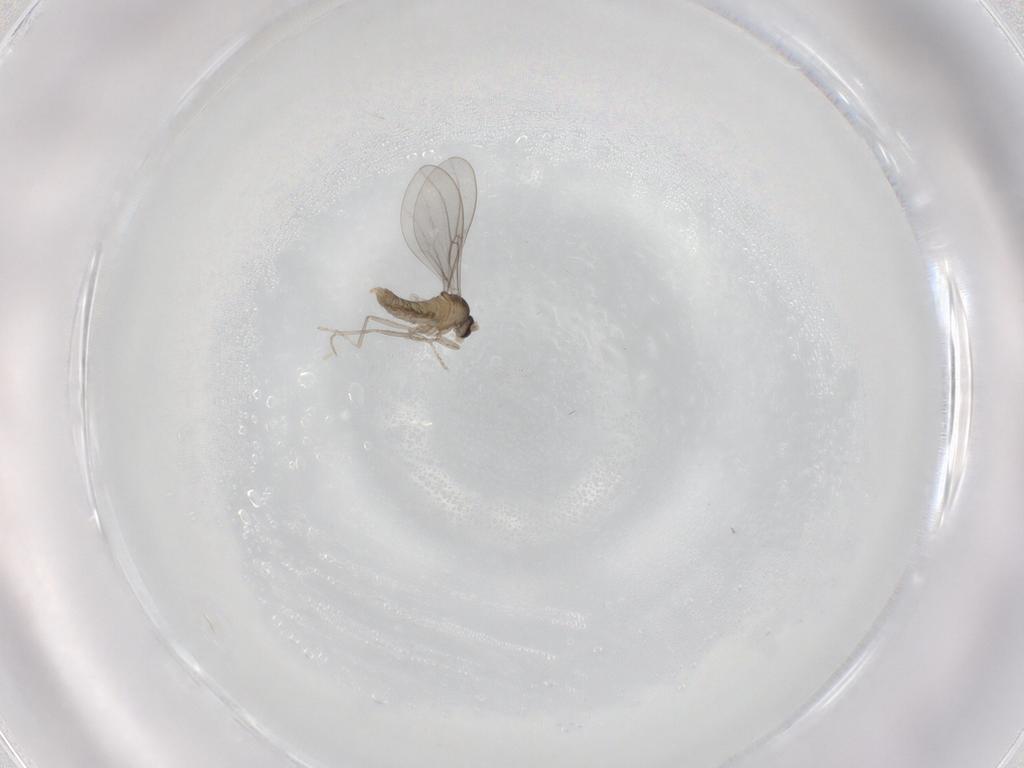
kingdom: Animalia
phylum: Arthropoda
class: Insecta
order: Diptera
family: Cecidomyiidae
